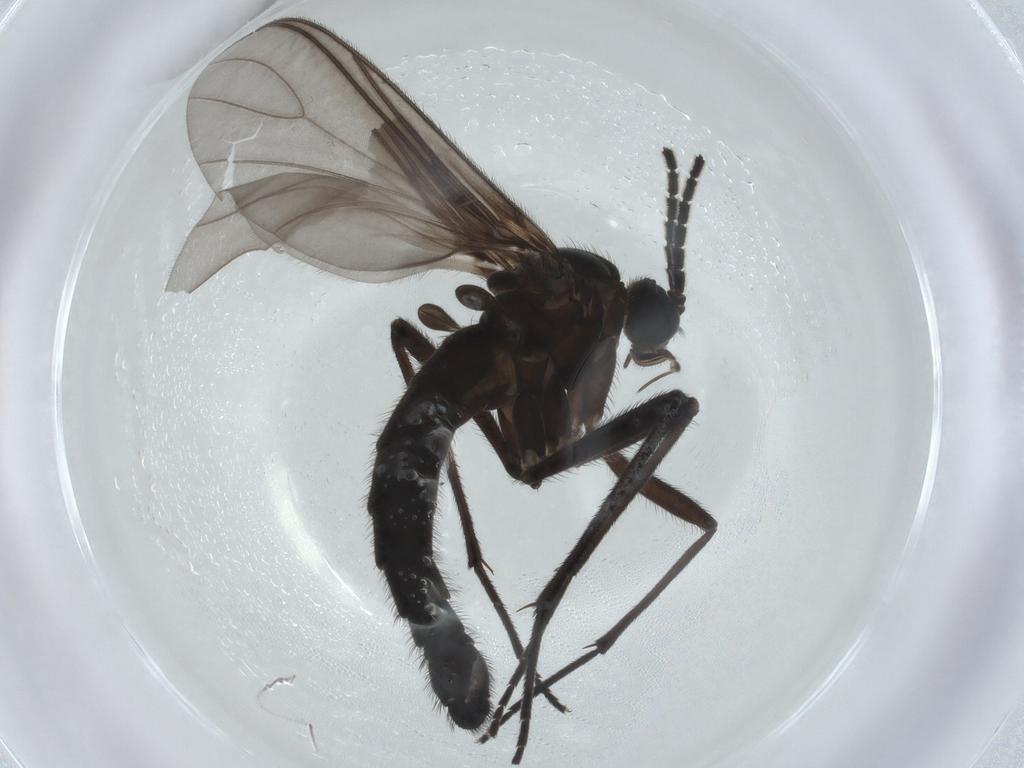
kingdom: Animalia
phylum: Arthropoda
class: Insecta
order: Diptera
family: Sciaridae
